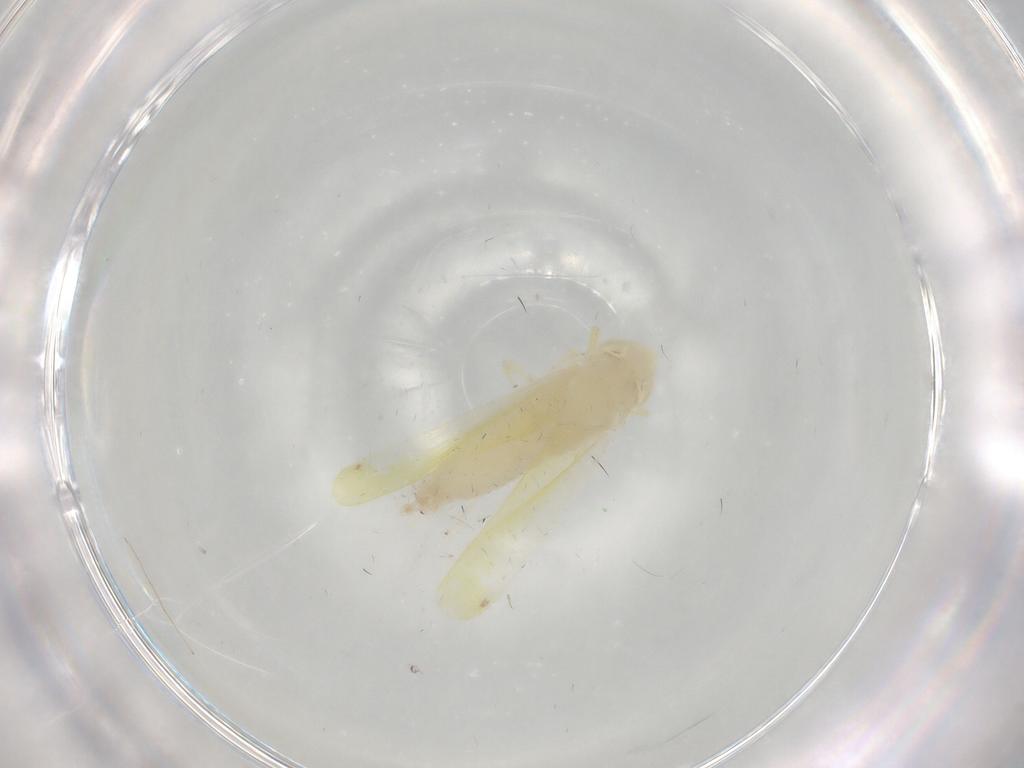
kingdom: Animalia
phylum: Arthropoda
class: Insecta
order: Hemiptera
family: Cicadellidae
